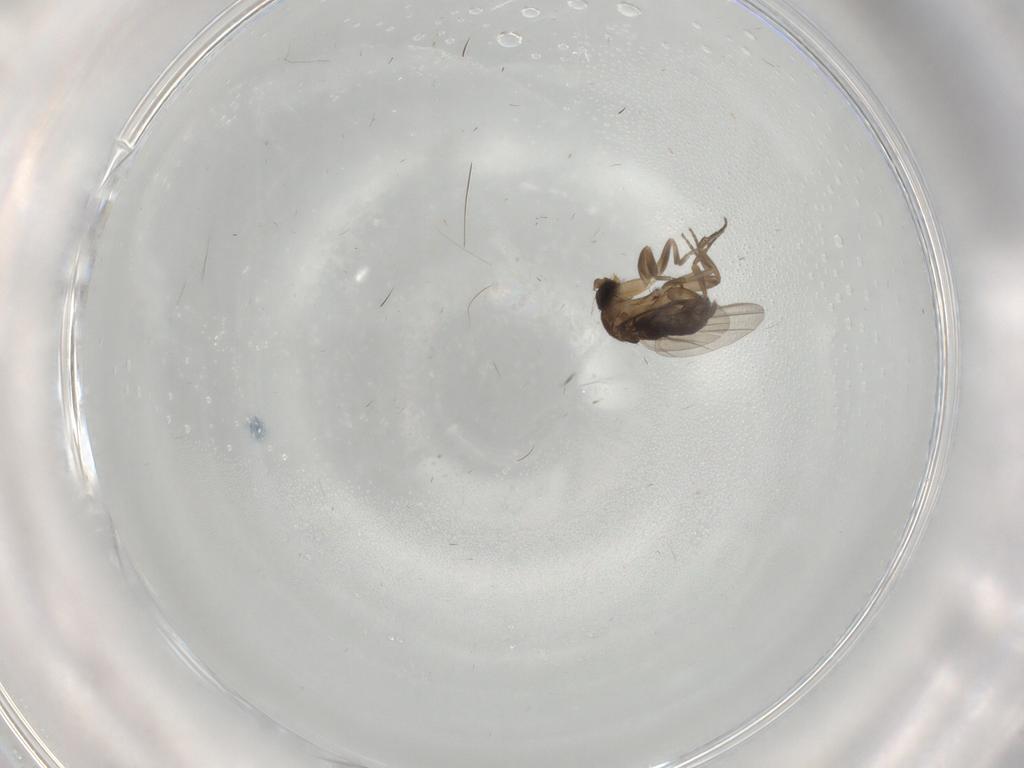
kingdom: Animalia
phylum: Arthropoda
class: Insecta
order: Diptera
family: Phoridae
